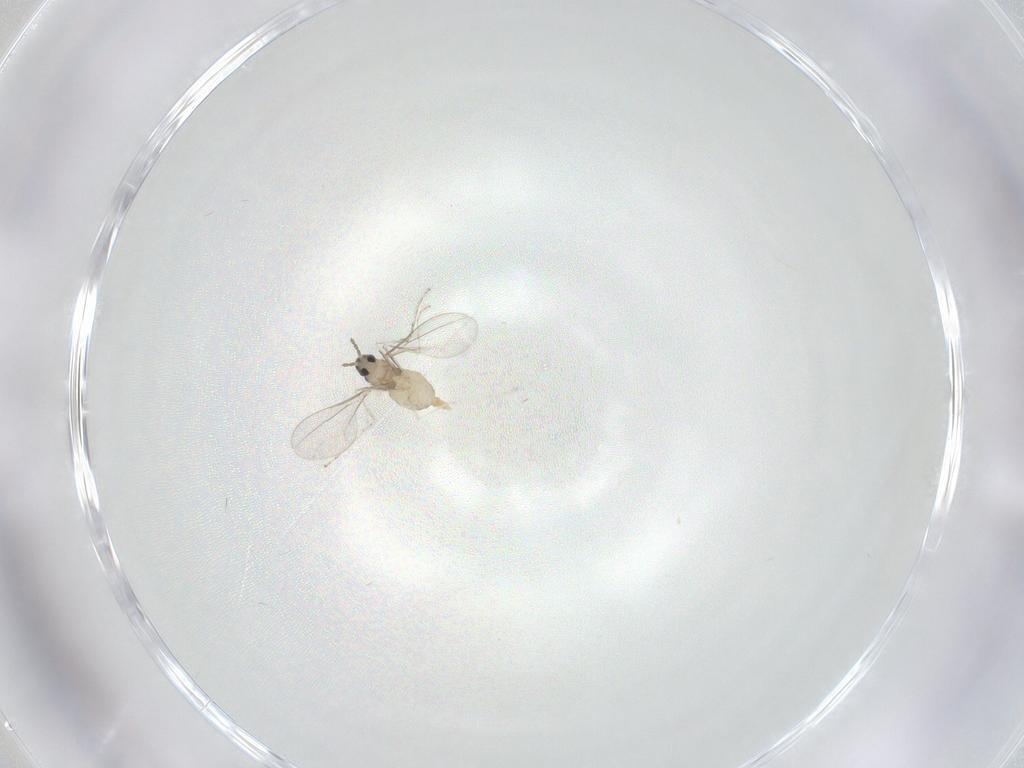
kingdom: Animalia
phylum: Arthropoda
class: Insecta
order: Diptera
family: Cecidomyiidae
